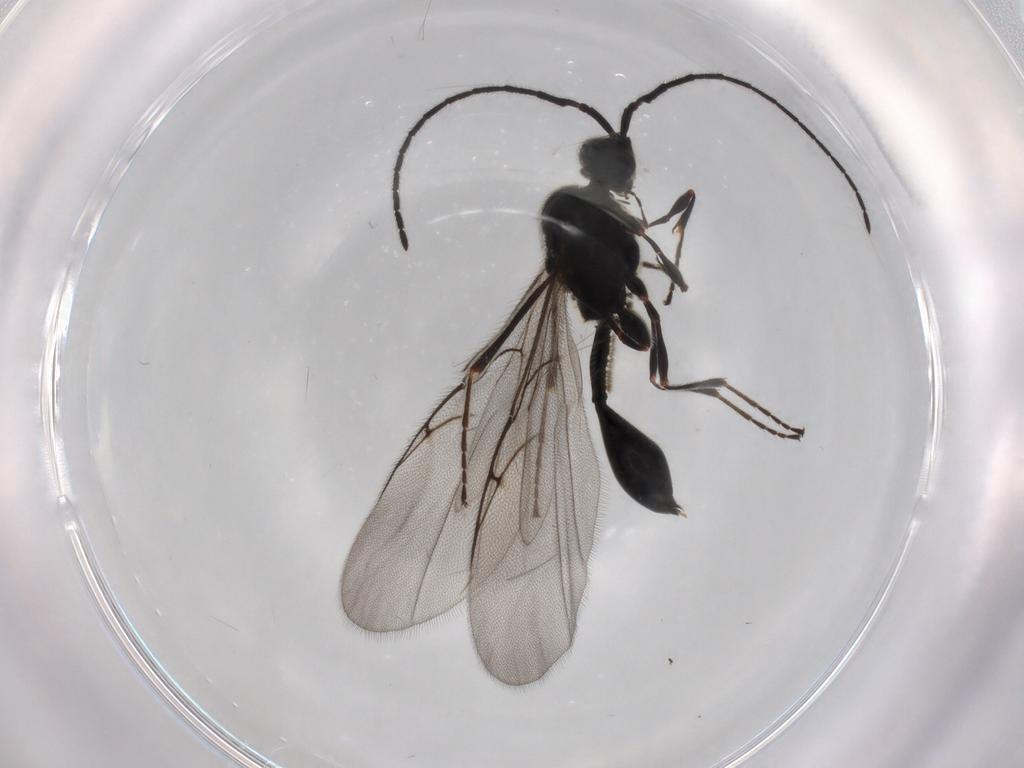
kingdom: Animalia
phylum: Arthropoda
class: Insecta
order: Hymenoptera
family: Diapriidae
